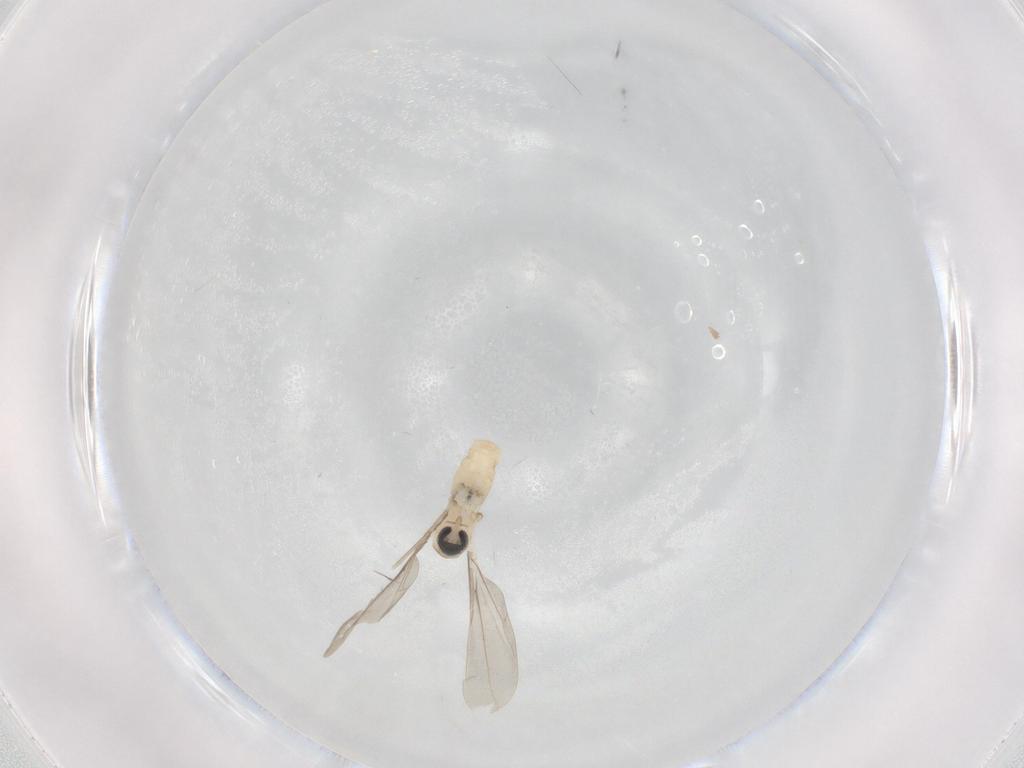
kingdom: Animalia
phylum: Arthropoda
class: Insecta
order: Diptera
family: Cecidomyiidae
